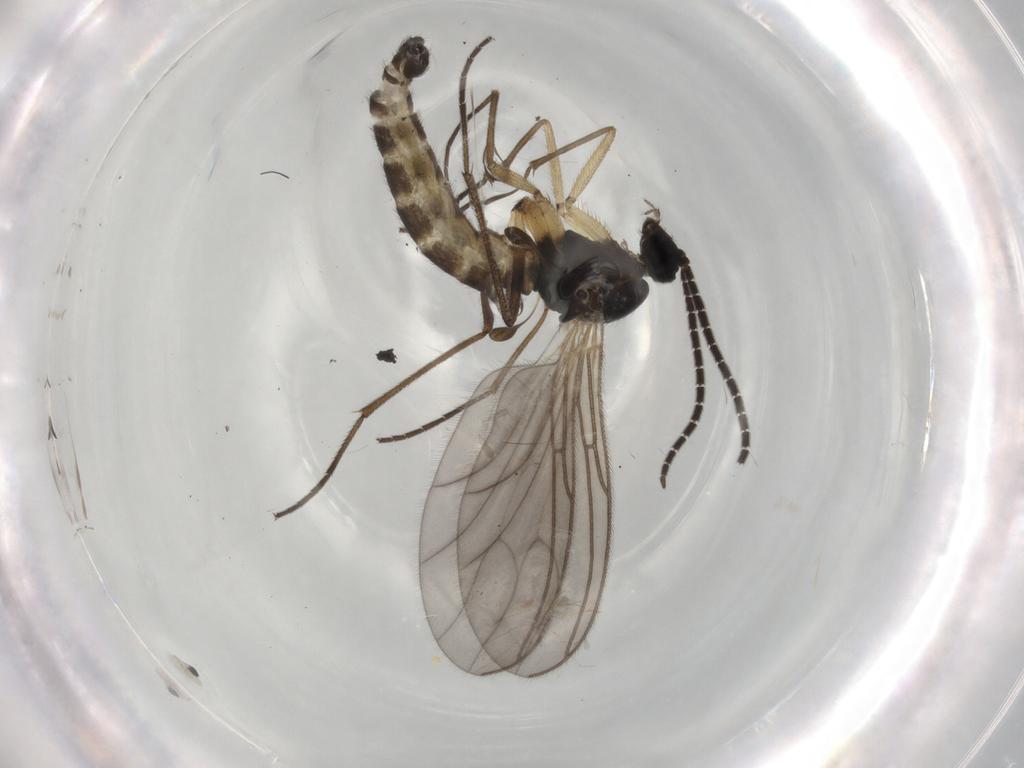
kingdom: Animalia
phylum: Arthropoda
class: Insecta
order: Diptera
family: Sciaridae
